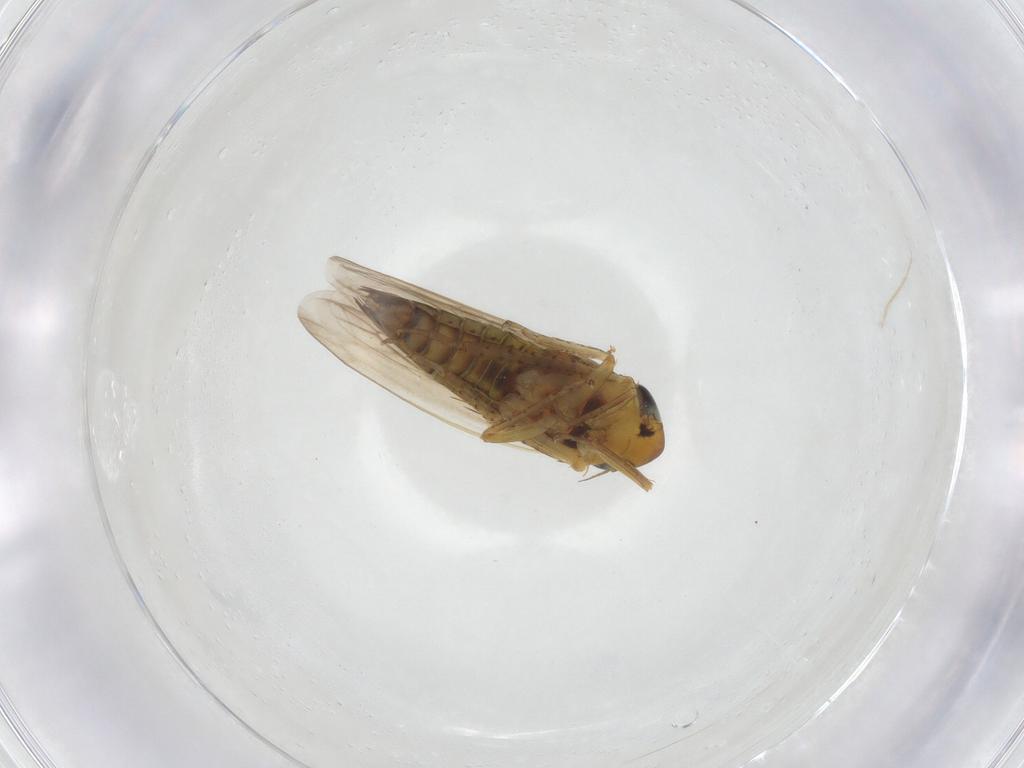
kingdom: Animalia
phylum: Arthropoda
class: Insecta
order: Hemiptera
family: Cicadellidae
